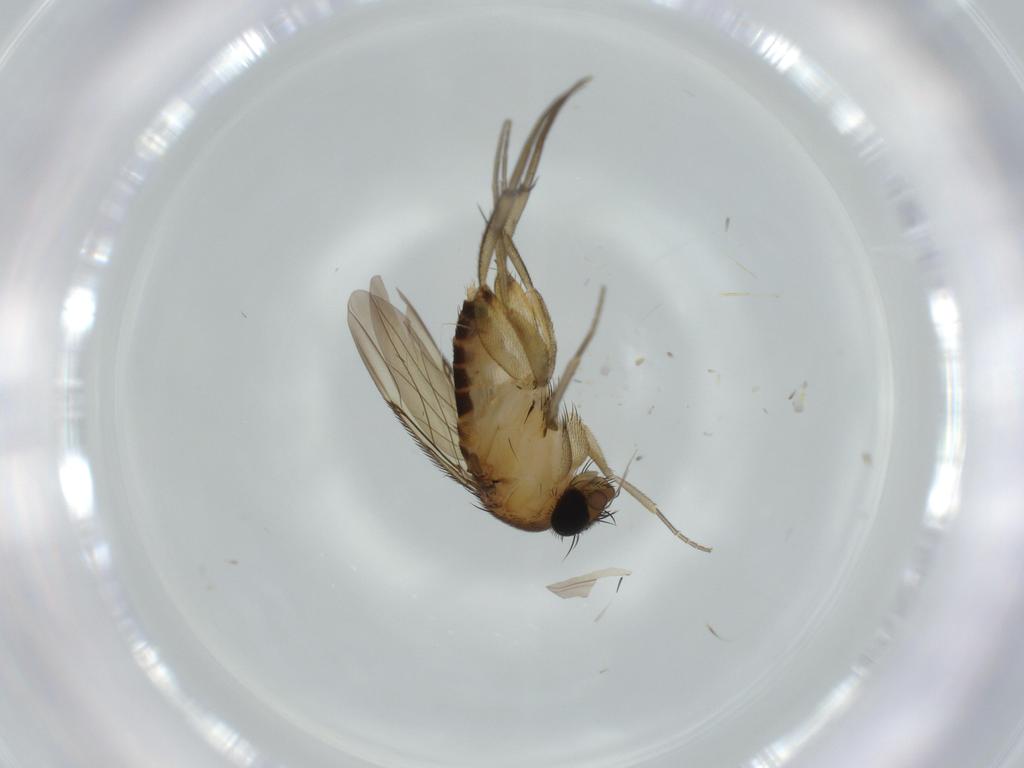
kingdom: Animalia
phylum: Arthropoda
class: Insecta
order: Diptera
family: Phoridae
